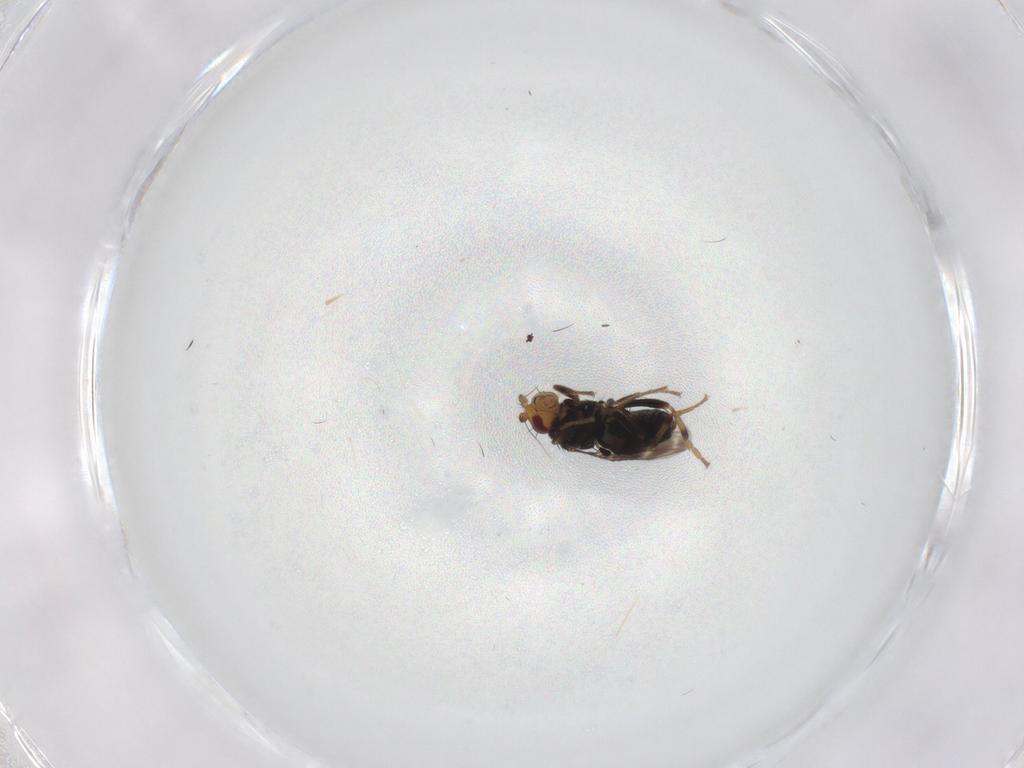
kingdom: Animalia
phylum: Arthropoda
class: Insecta
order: Diptera
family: Sphaeroceridae
